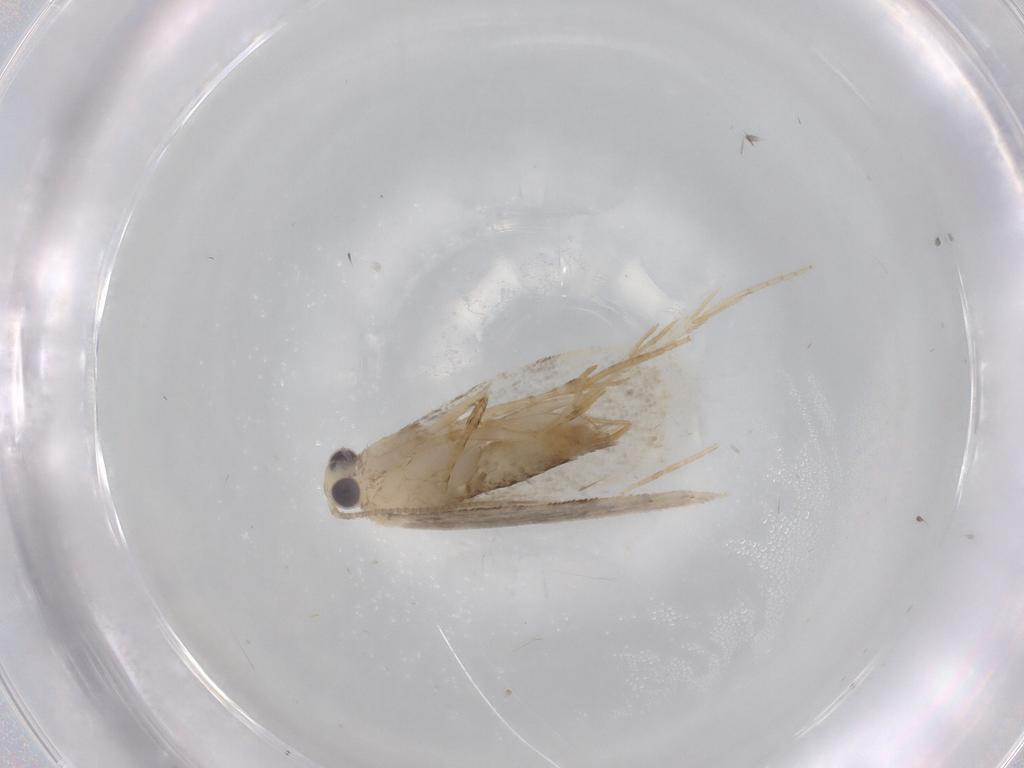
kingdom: Animalia
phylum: Arthropoda
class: Insecta
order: Lepidoptera
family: Psychidae
